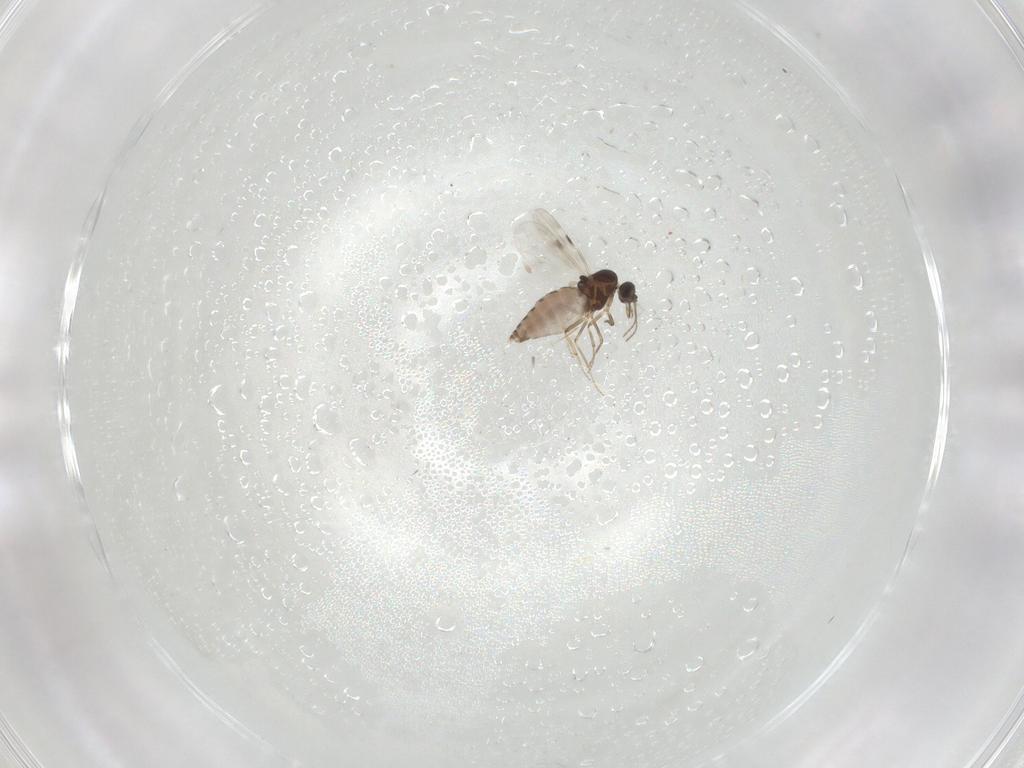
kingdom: Animalia
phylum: Arthropoda
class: Insecta
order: Diptera
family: Cecidomyiidae
